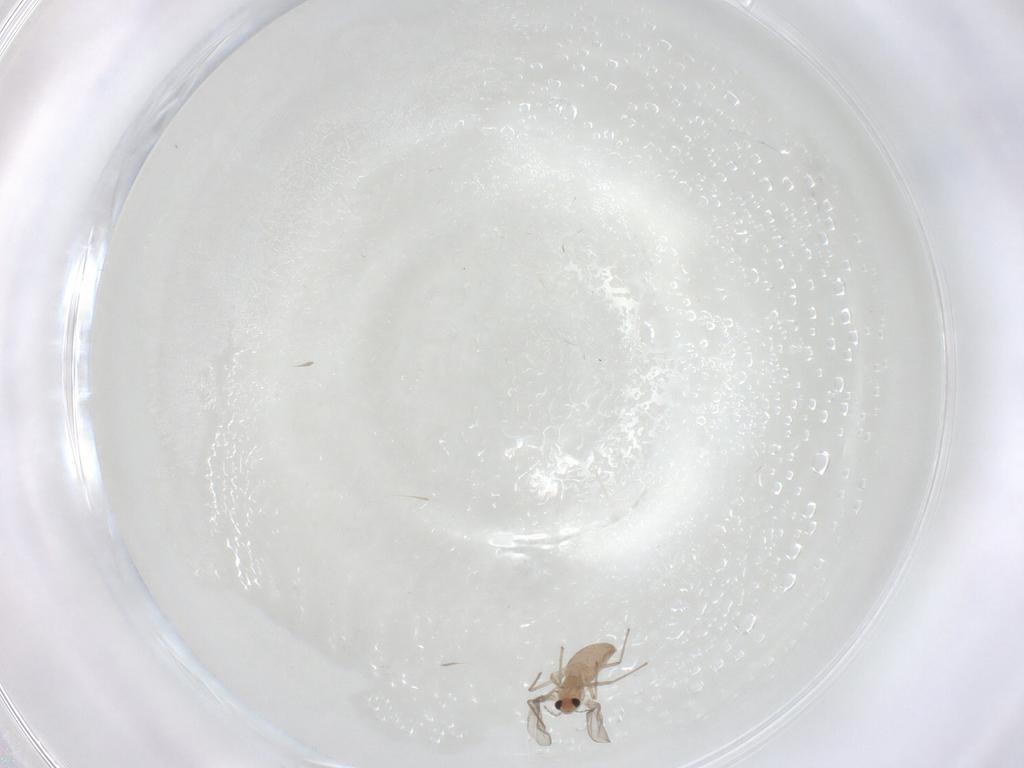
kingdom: Animalia
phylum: Arthropoda
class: Insecta
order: Diptera
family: Chironomidae
